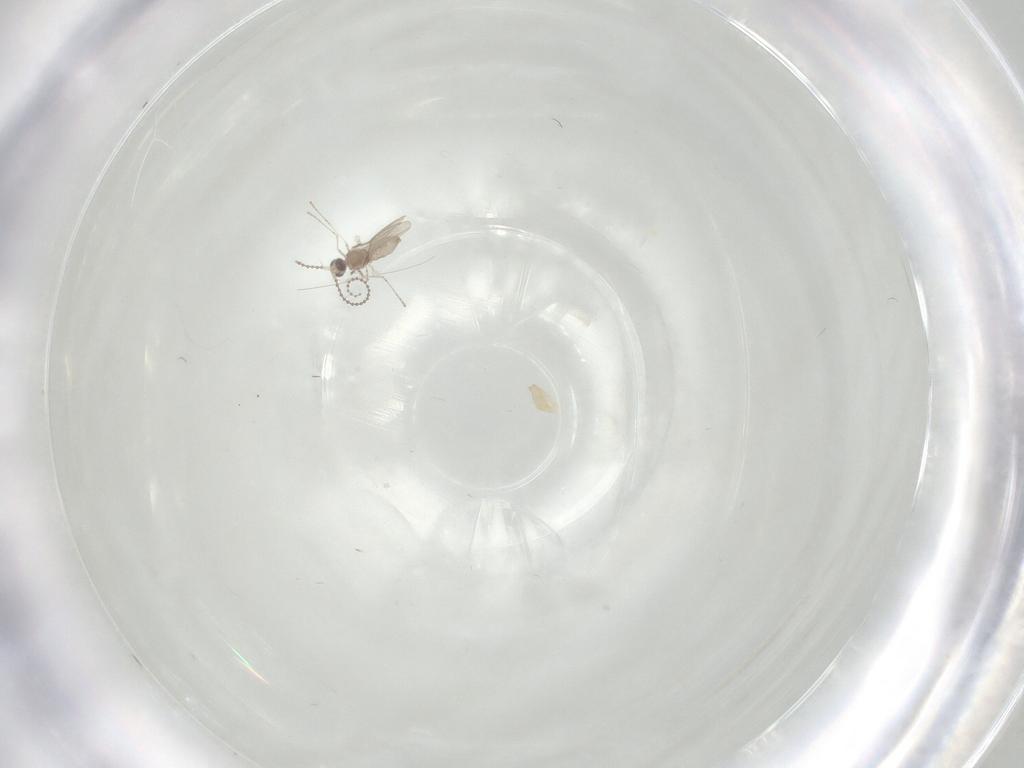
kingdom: Animalia
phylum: Arthropoda
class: Insecta
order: Diptera
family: Cecidomyiidae
